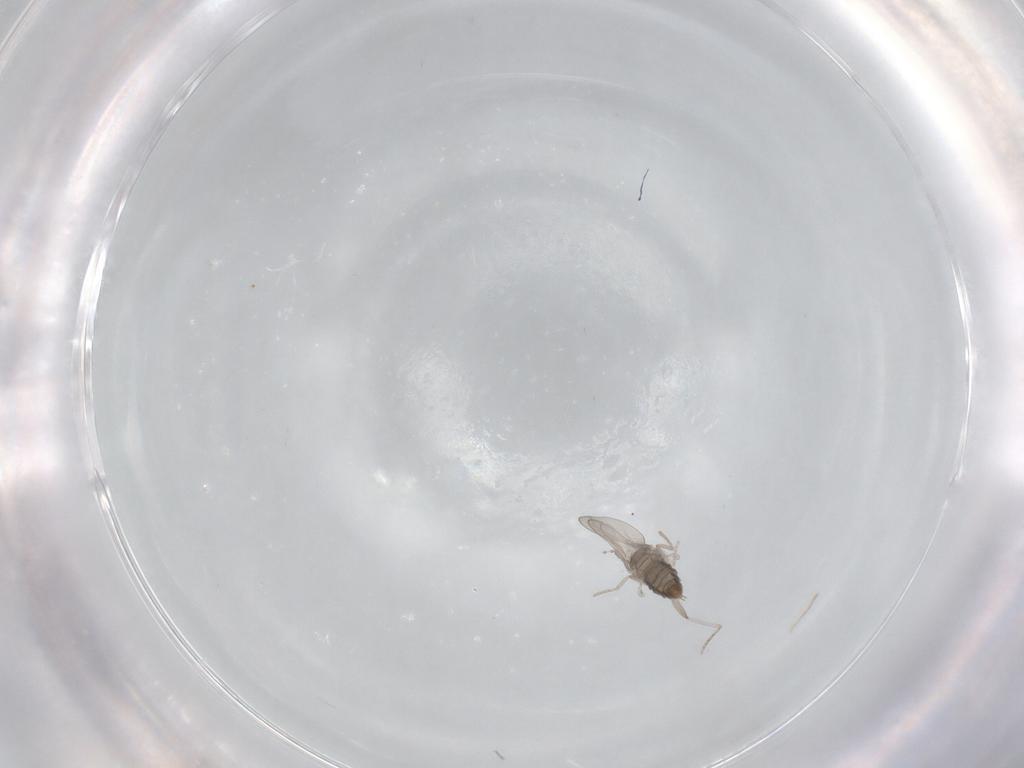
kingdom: Animalia
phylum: Arthropoda
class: Insecta
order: Diptera
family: Cecidomyiidae
